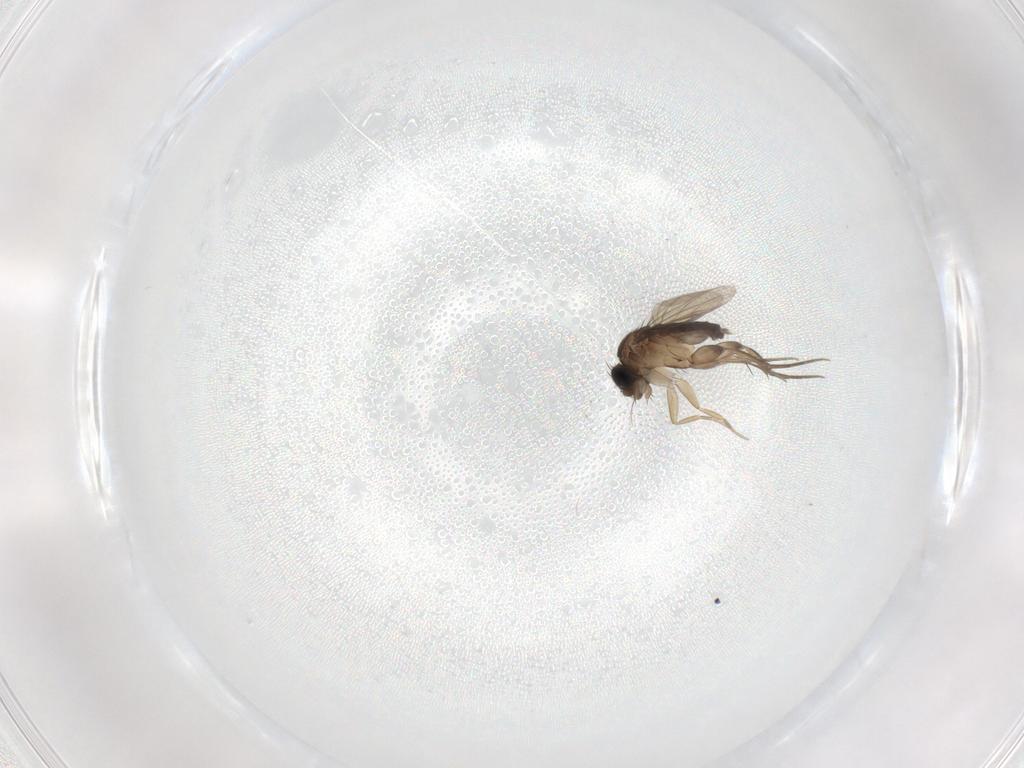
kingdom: Animalia
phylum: Arthropoda
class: Insecta
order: Diptera
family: Phoridae
